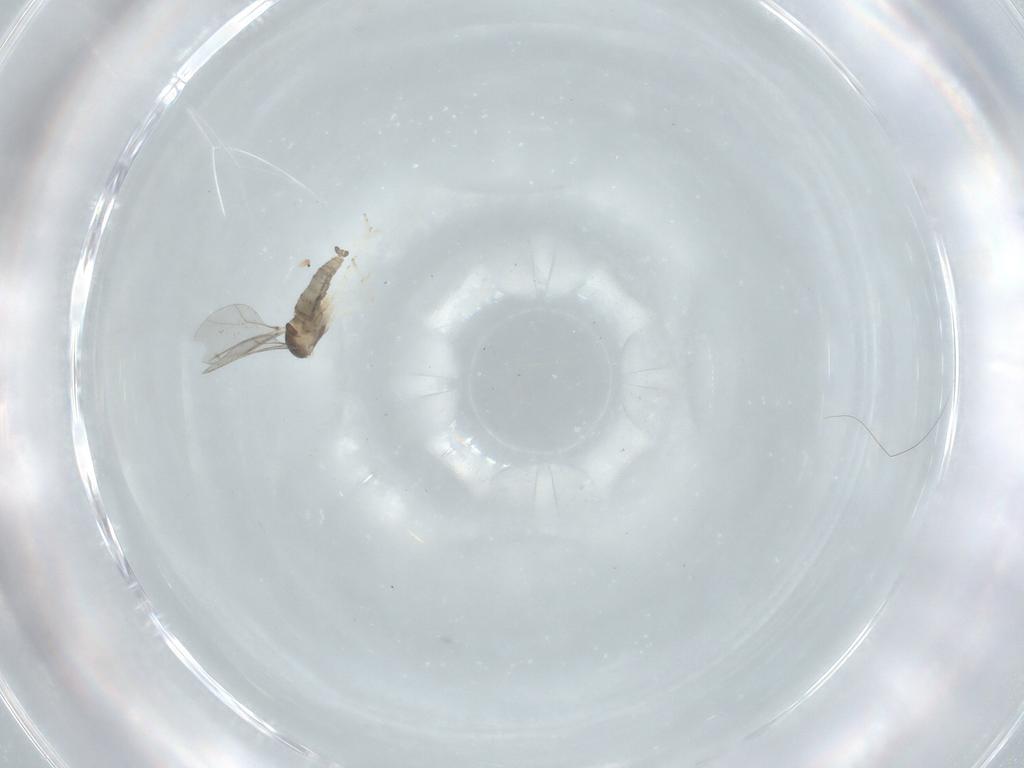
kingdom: Animalia
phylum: Arthropoda
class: Insecta
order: Diptera
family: Cecidomyiidae
